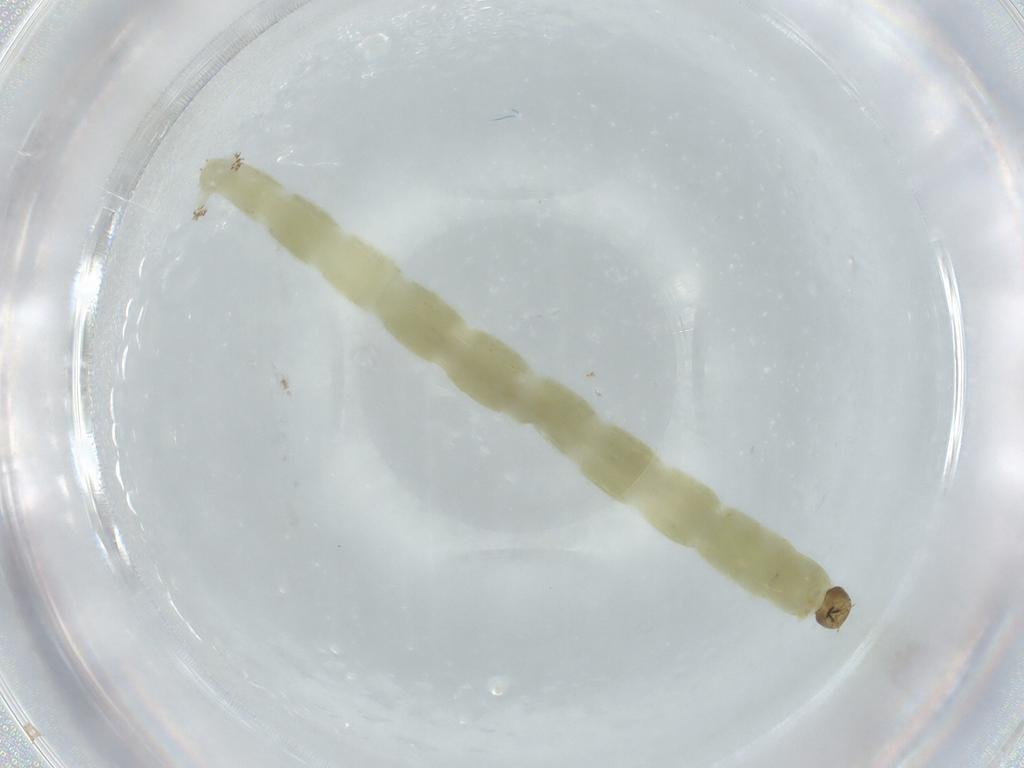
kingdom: Animalia
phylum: Arthropoda
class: Insecta
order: Diptera
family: Chironomidae
